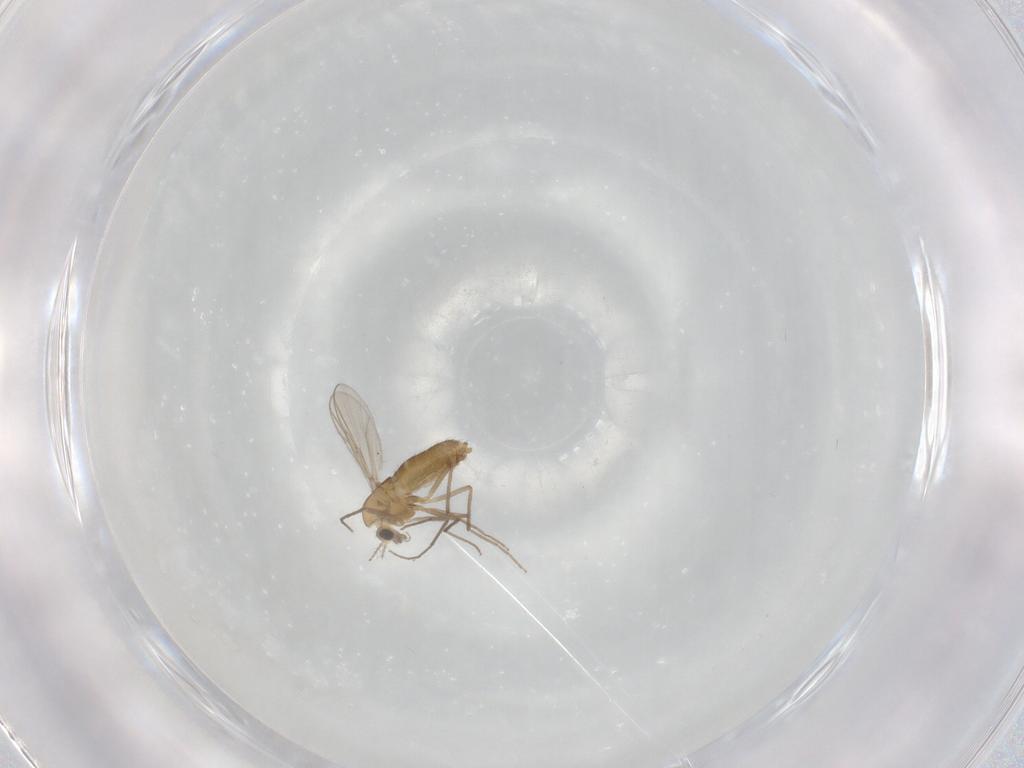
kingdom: Animalia
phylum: Arthropoda
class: Insecta
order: Diptera
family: Chironomidae
